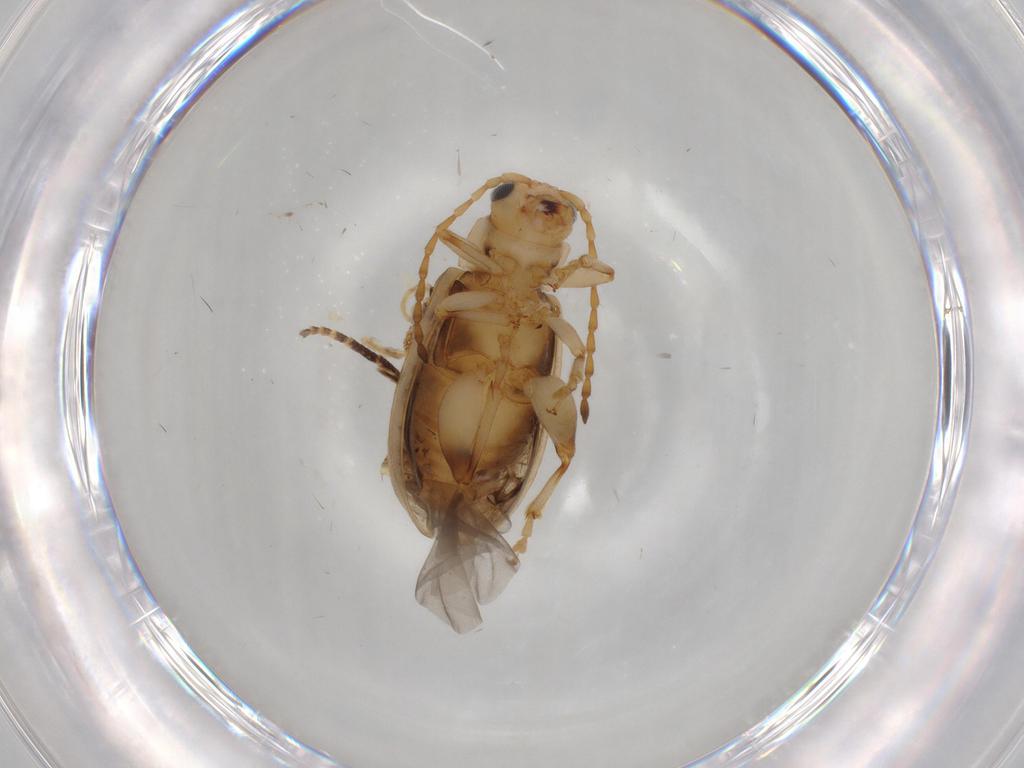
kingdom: Animalia
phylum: Arthropoda
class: Insecta
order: Coleoptera
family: Chrysomelidae
